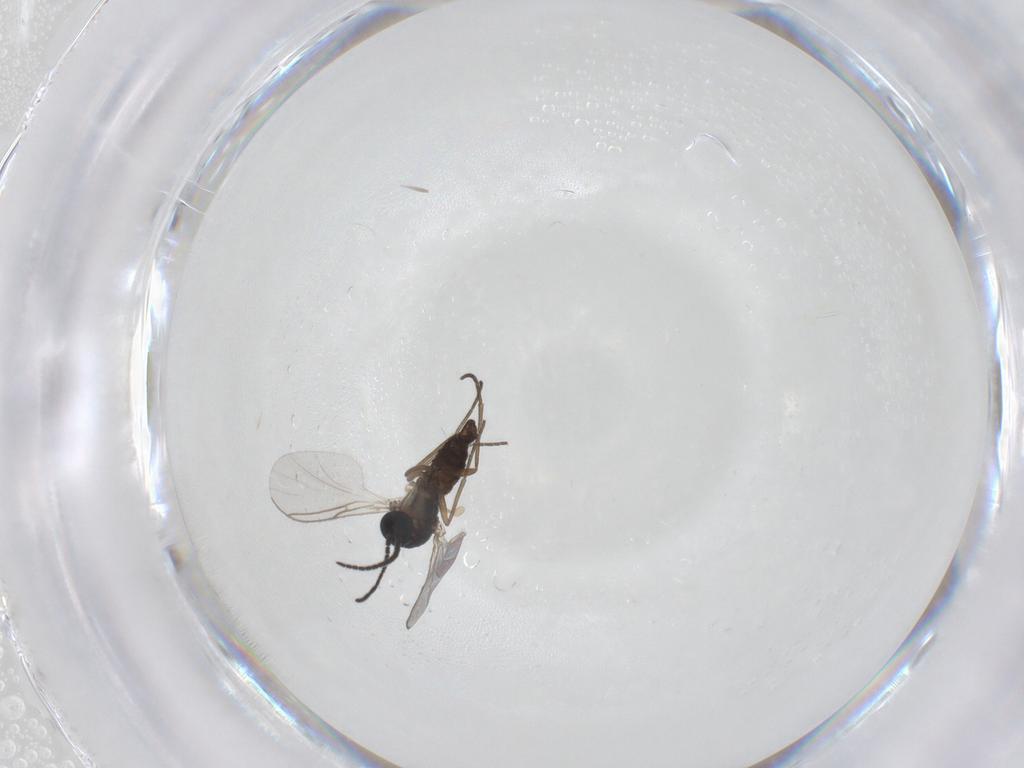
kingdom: Animalia
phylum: Arthropoda
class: Insecta
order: Diptera
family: Sciaridae
